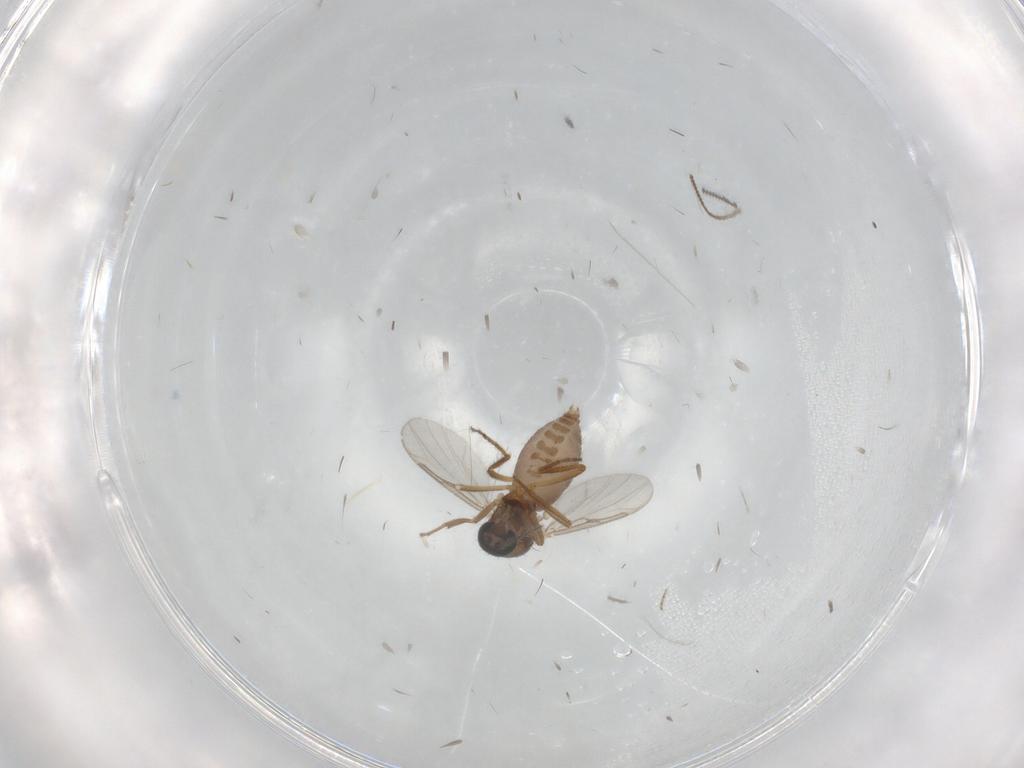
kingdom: Animalia
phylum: Arthropoda
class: Insecta
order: Diptera
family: Ceratopogonidae
